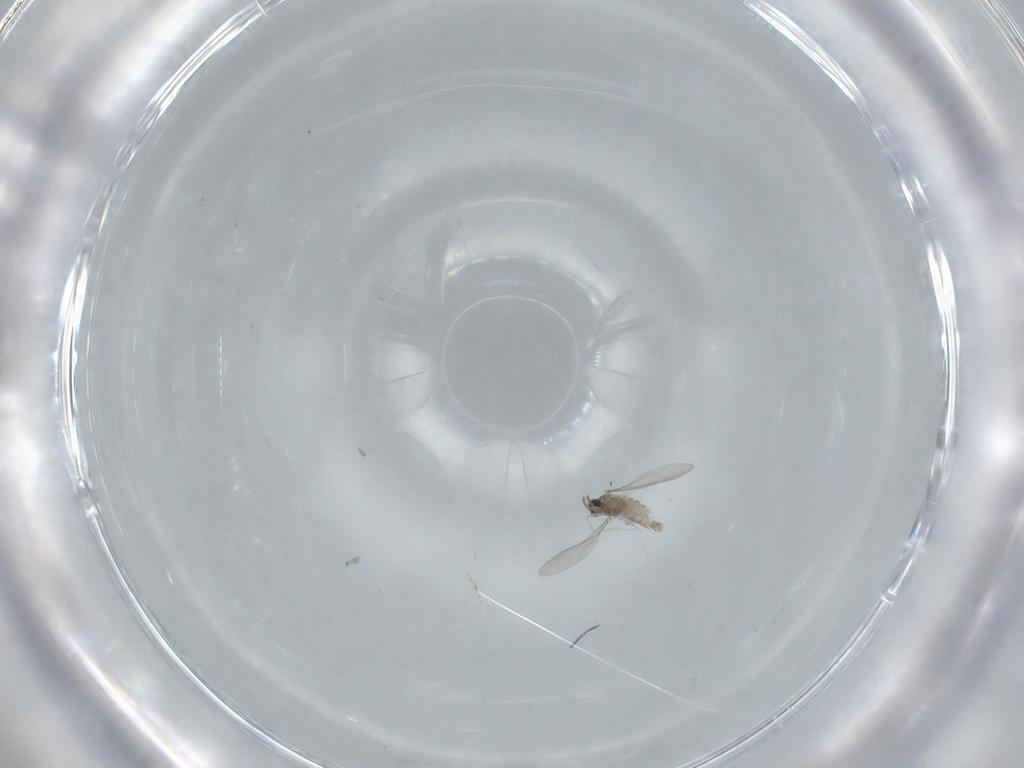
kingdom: Animalia
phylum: Arthropoda
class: Insecta
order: Diptera
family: Cecidomyiidae
